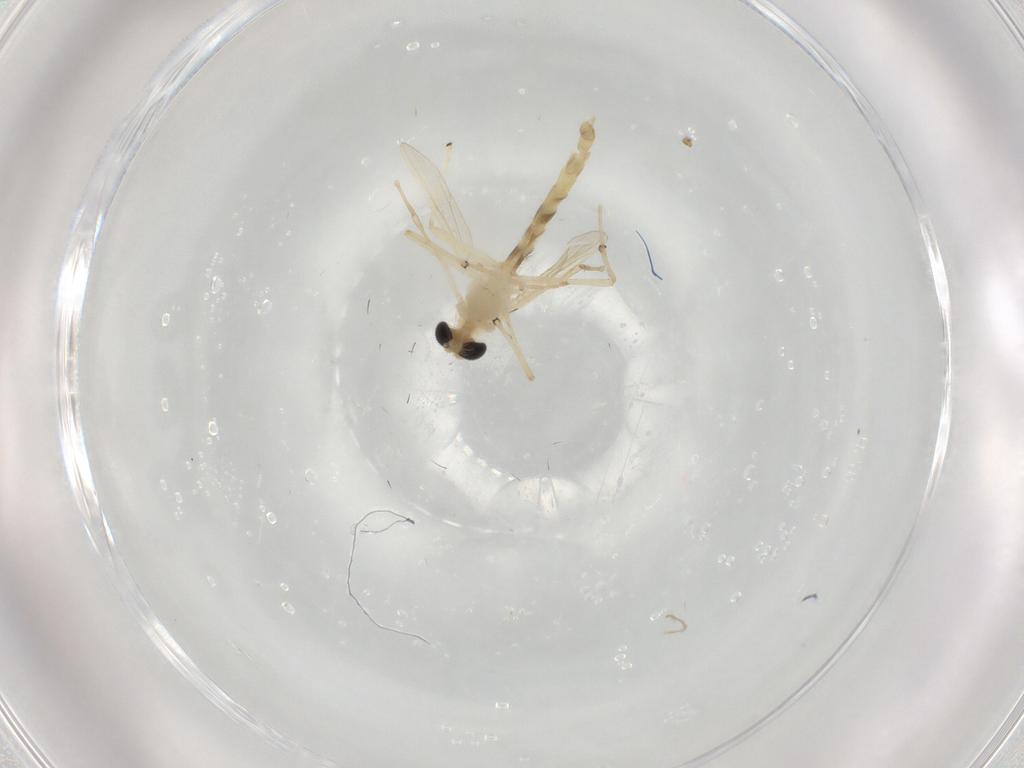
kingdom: Animalia
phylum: Arthropoda
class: Insecta
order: Diptera
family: Chironomidae
